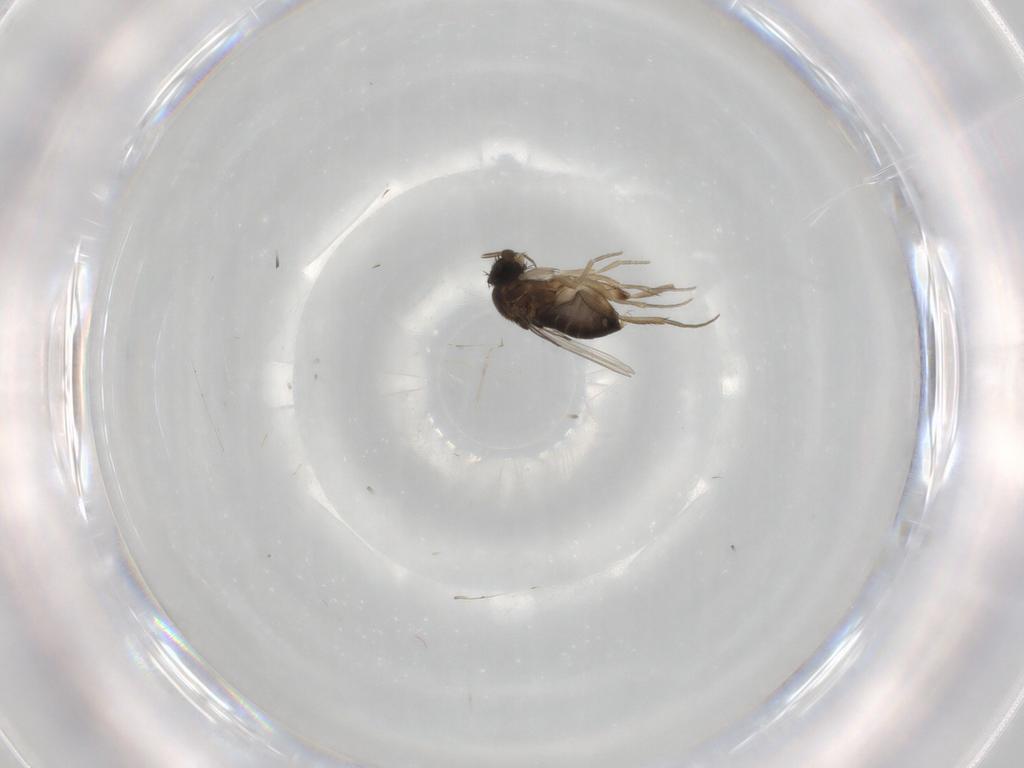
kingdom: Animalia
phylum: Arthropoda
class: Insecta
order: Diptera
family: Phoridae
